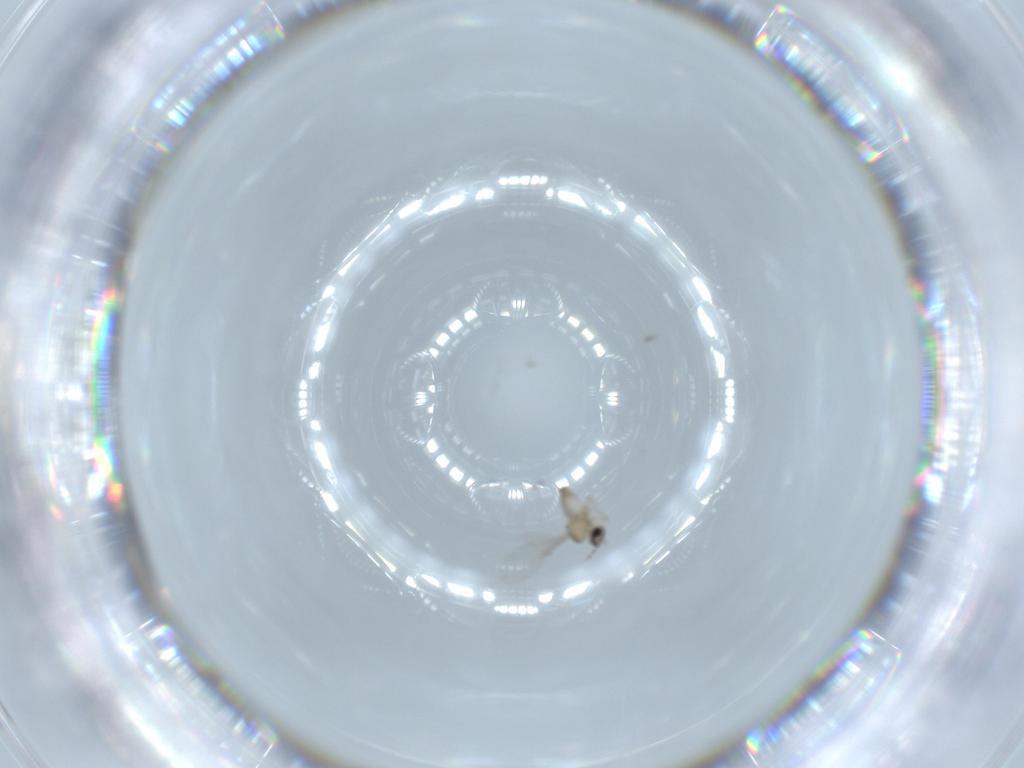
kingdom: Animalia
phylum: Arthropoda
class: Insecta
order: Diptera
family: Cecidomyiidae
